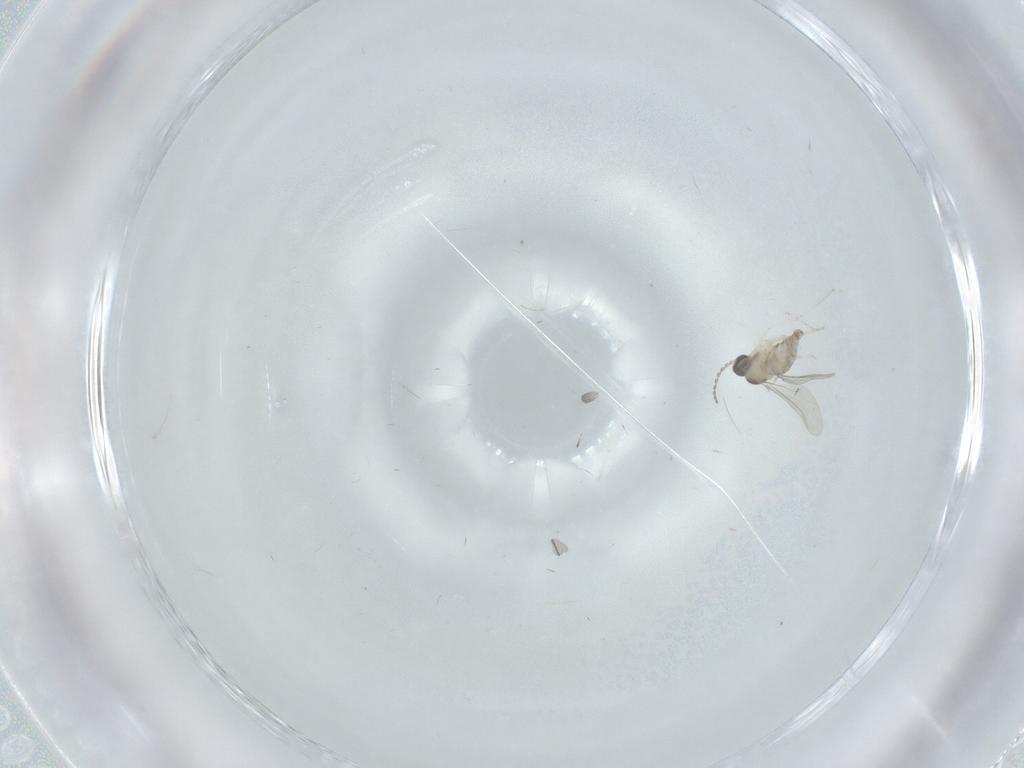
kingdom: Animalia
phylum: Arthropoda
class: Insecta
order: Diptera
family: Cecidomyiidae
